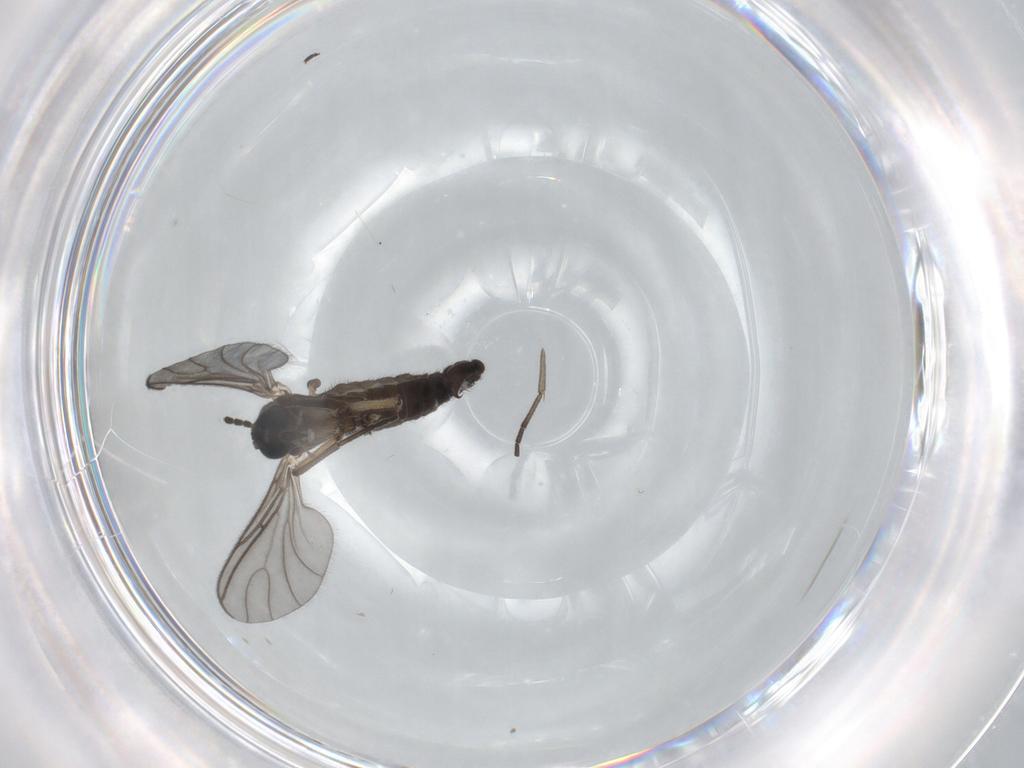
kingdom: Animalia
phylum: Arthropoda
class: Insecta
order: Diptera
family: Sciaridae
